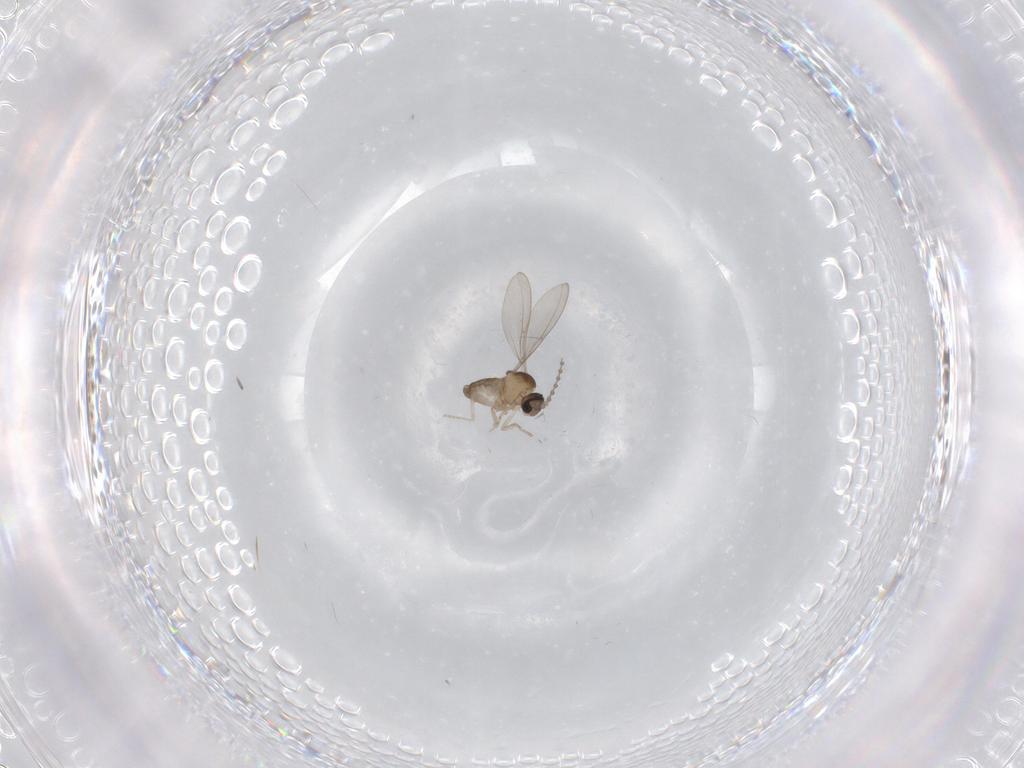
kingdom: Animalia
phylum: Arthropoda
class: Insecta
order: Diptera
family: Cecidomyiidae
